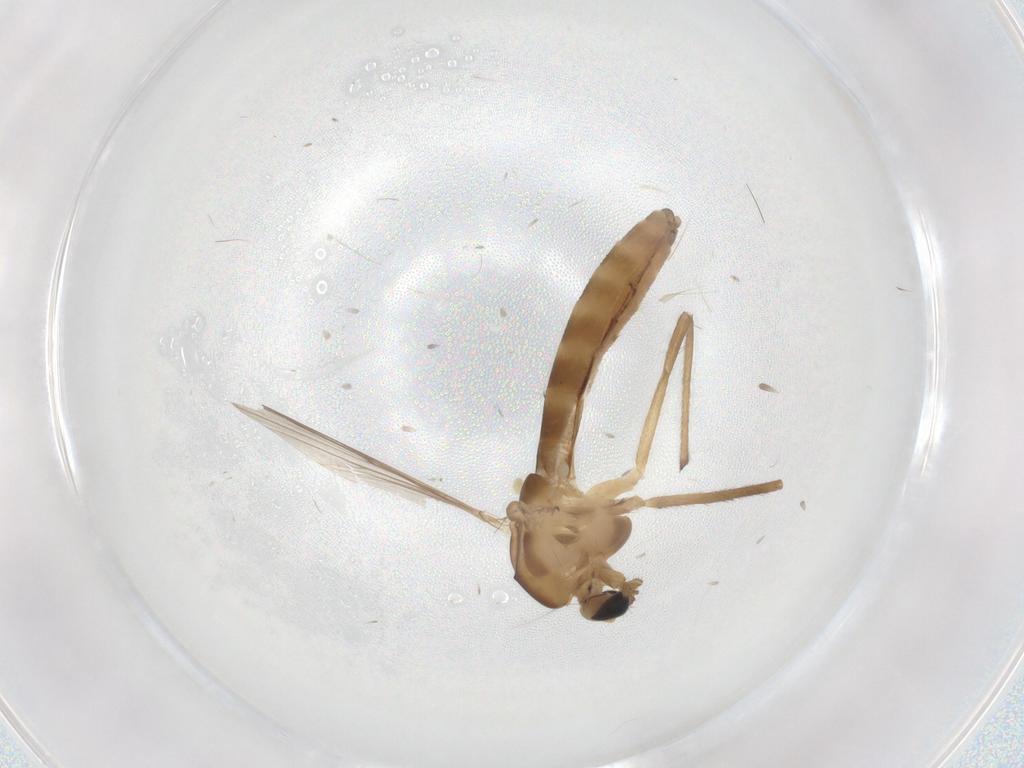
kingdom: Animalia
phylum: Arthropoda
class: Insecta
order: Diptera
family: Chironomidae
